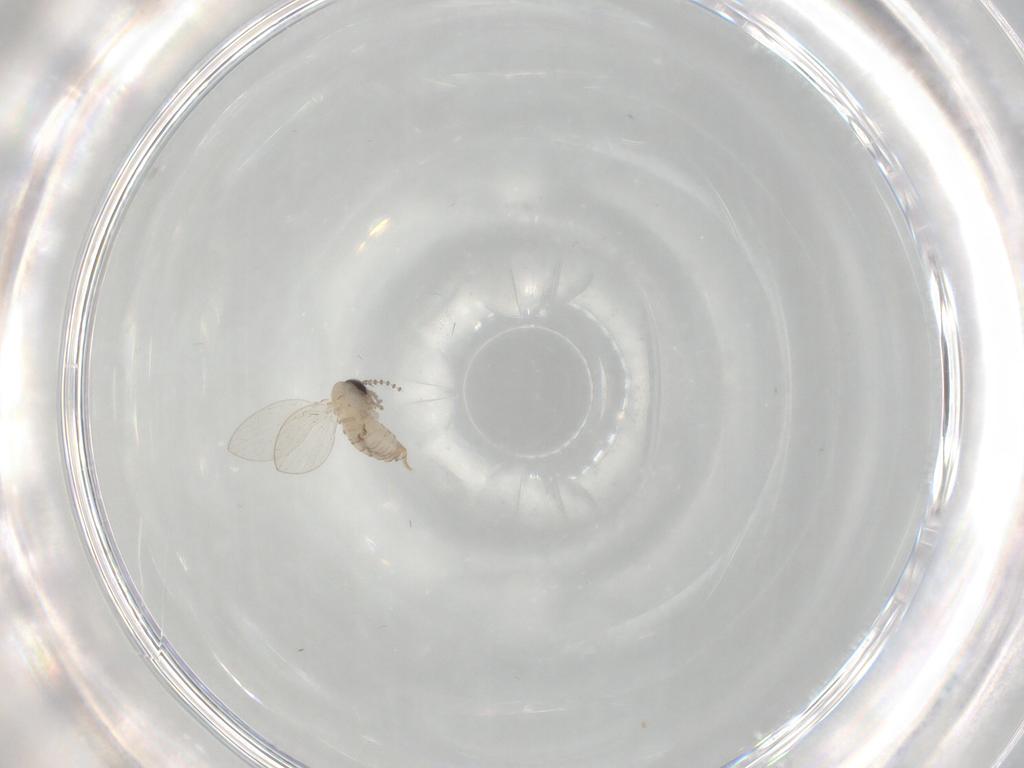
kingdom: Animalia
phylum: Arthropoda
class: Insecta
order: Diptera
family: Psychodidae
